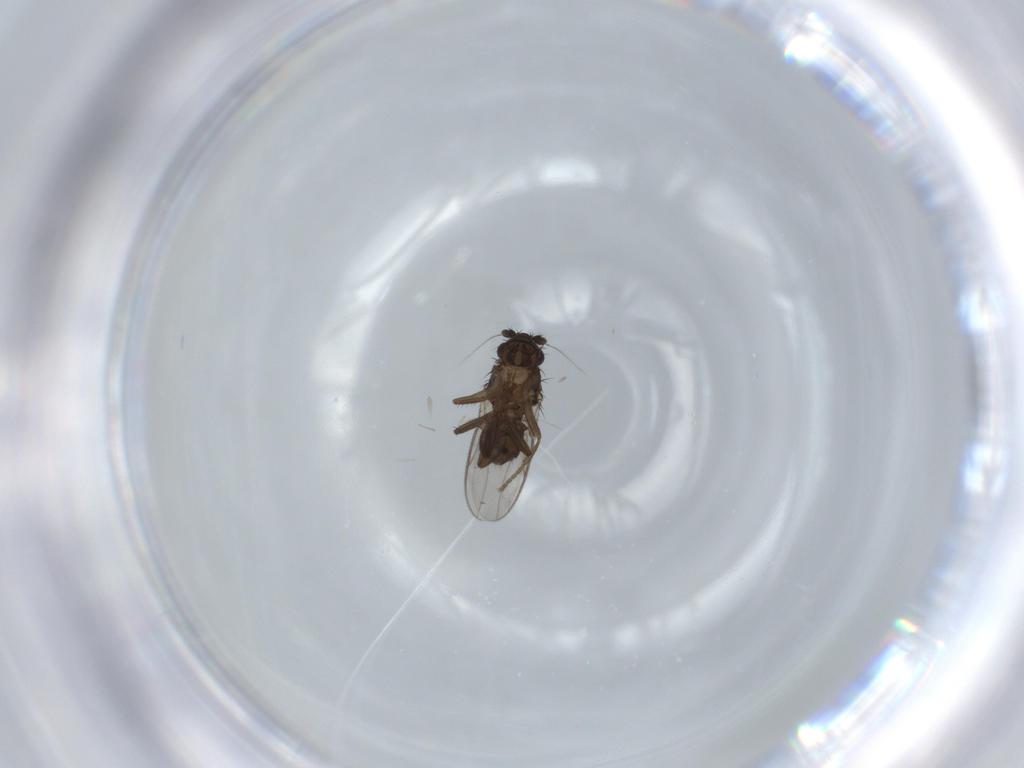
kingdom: Animalia
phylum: Arthropoda
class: Insecta
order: Diptera
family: Sphaeroceridae
